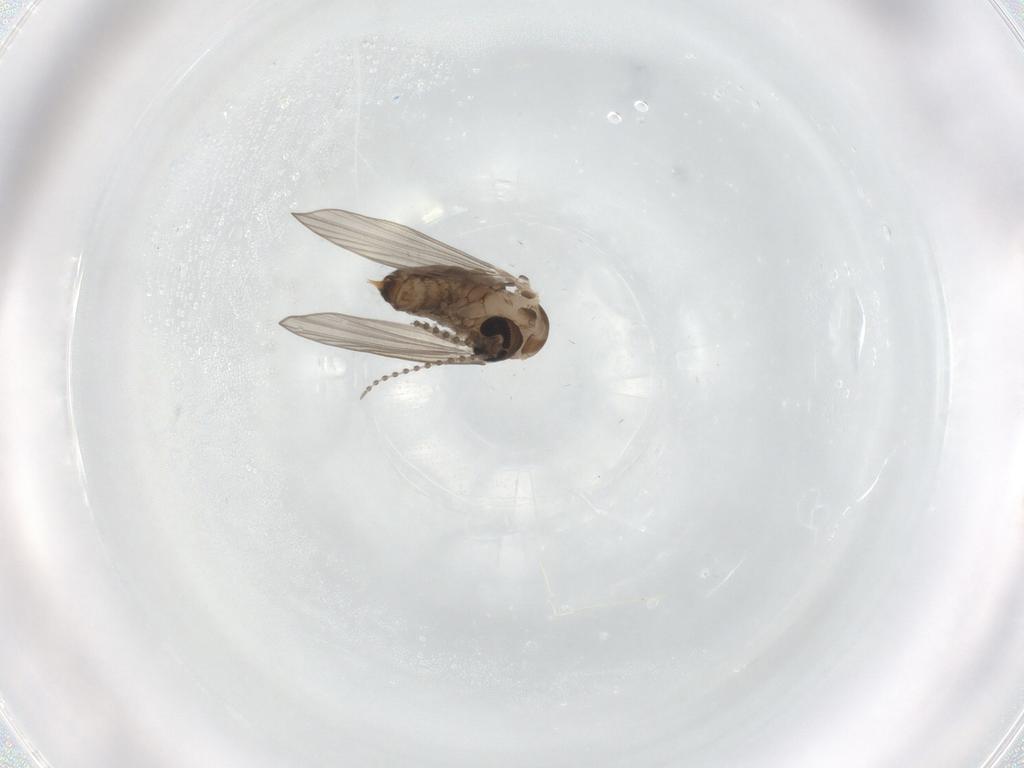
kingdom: Animalia
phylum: Arthropoda
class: Insecta
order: Diptera
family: Psychodidae
